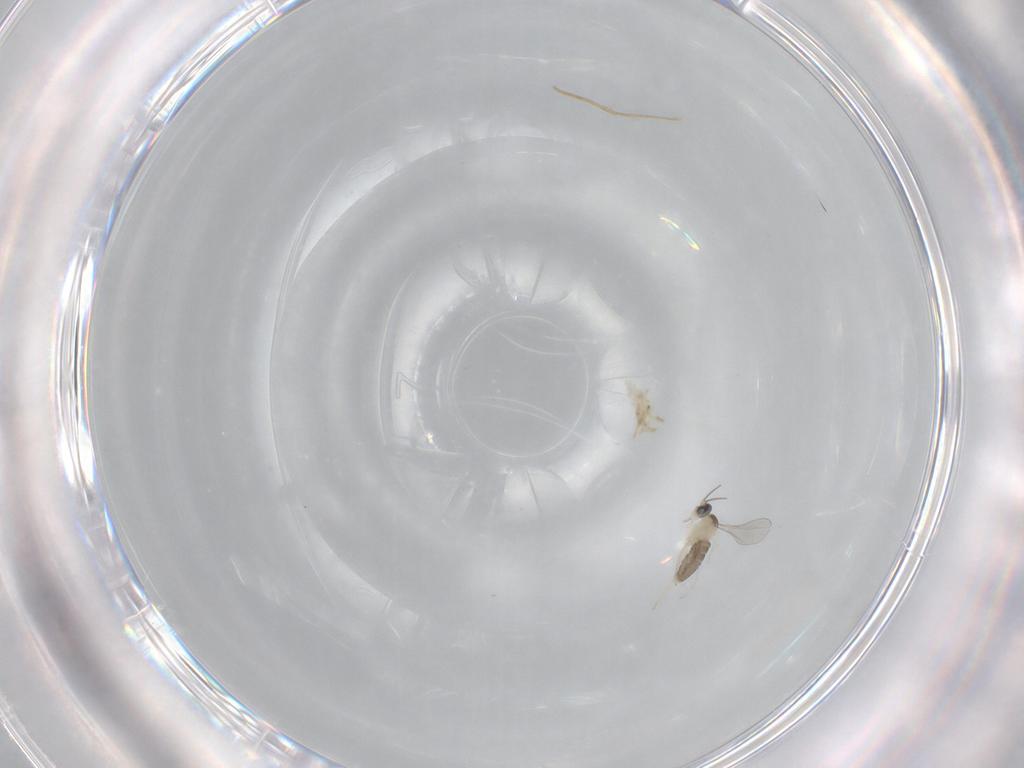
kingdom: Animalia
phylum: Arthropoda
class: Insecta
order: Diptera
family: Cecidomyiidae
